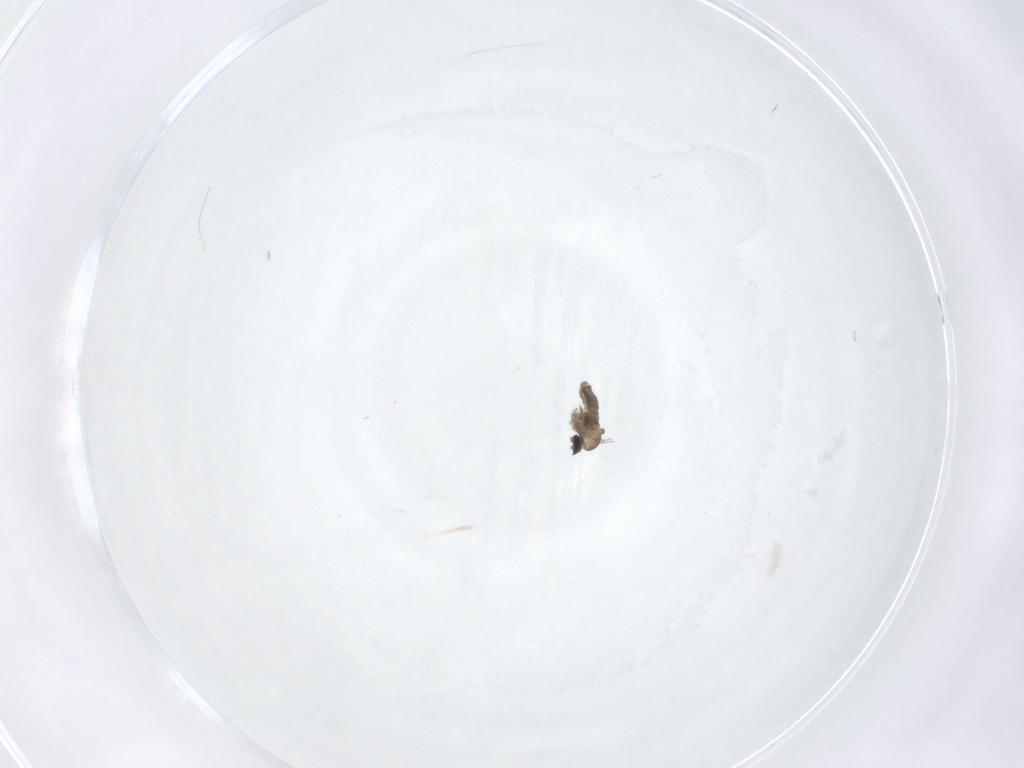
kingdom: Animalia
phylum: Arthropoda
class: Insecta
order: Diptera
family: Cecidomyiidae
